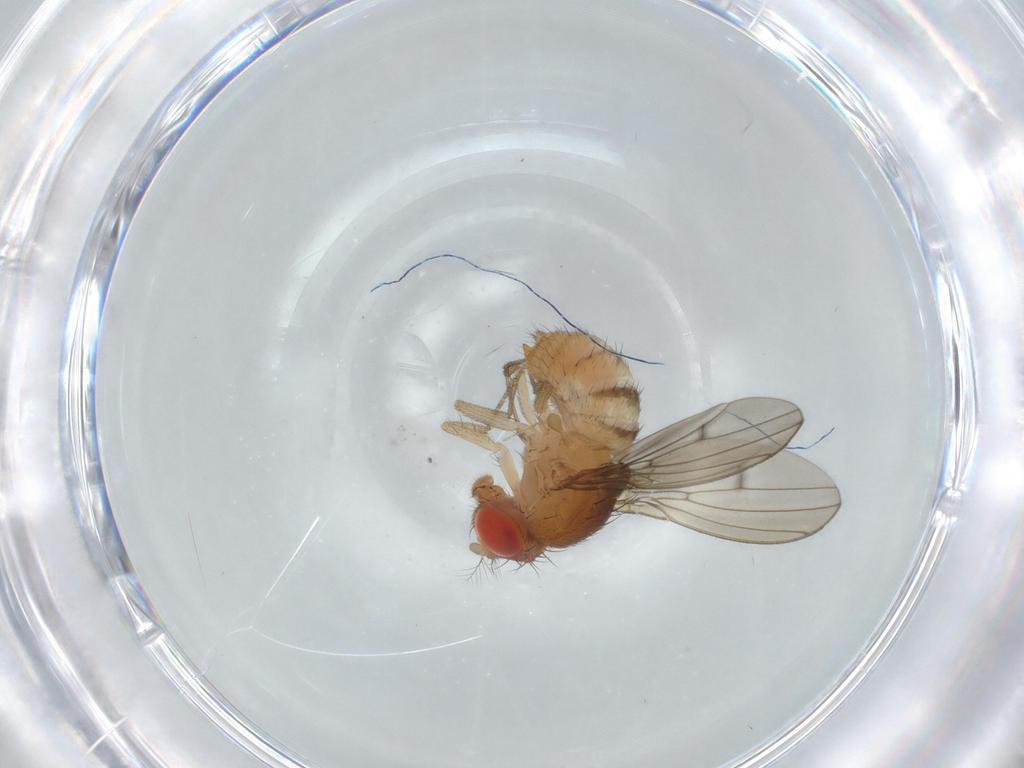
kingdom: Animalia
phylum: Arthropoda
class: Insecta
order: Diptera
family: Drosophilidae
